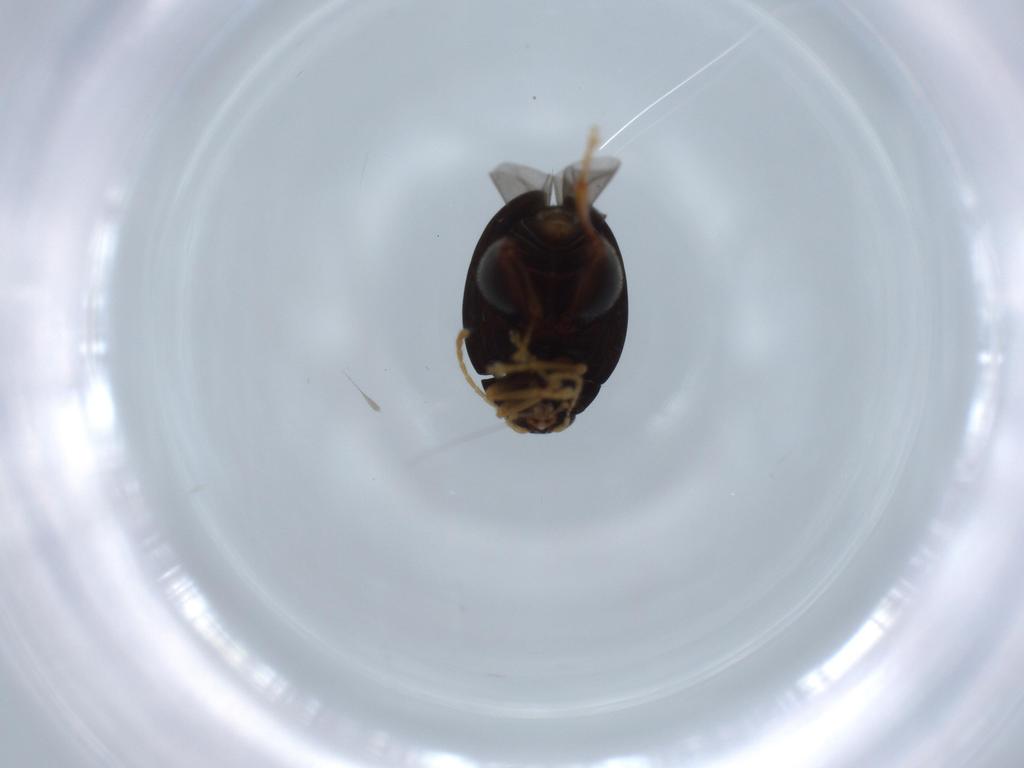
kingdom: Animalia
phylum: Arthropoda
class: Insecta
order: Coleoptera
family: Chrysomelidae
